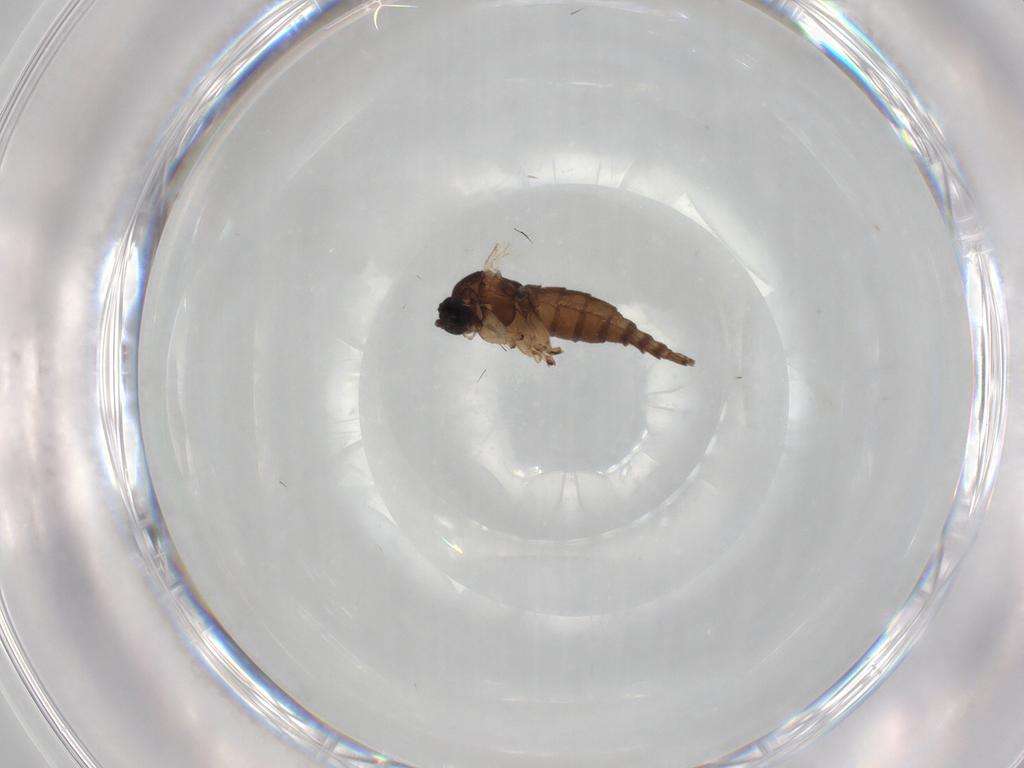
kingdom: Animalia
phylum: Arthropoda
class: Insecta
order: Diptera
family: Sciaridae
